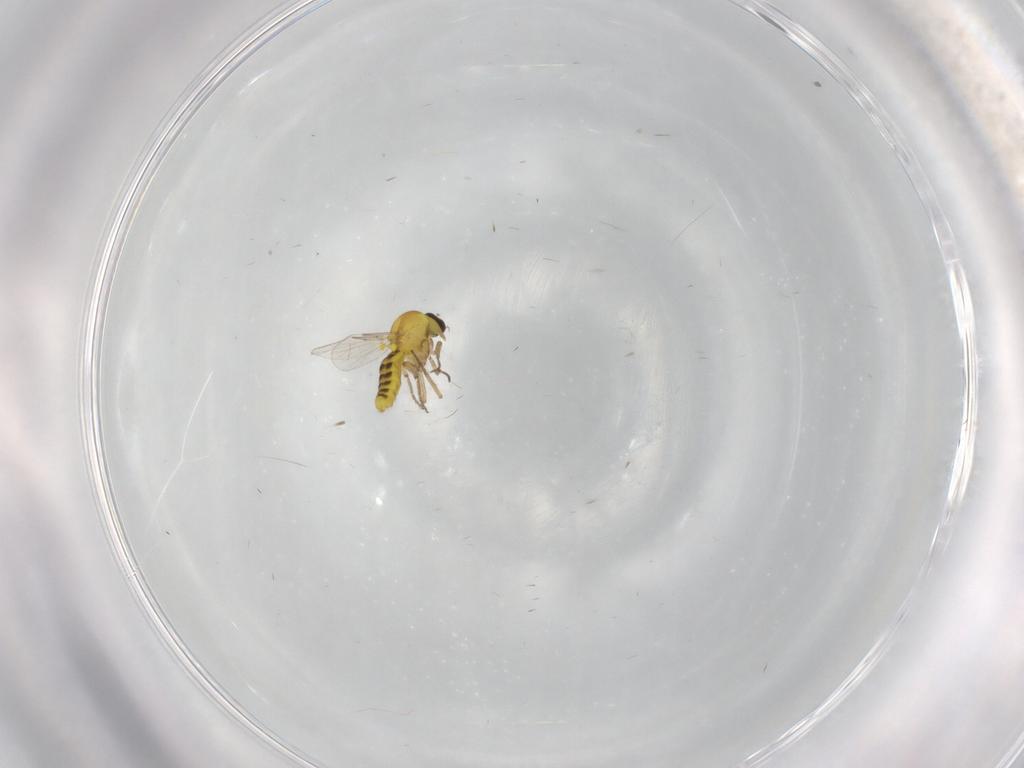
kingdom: Animalia
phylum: Arthropoda
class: Insecta
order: Diptera
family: Ceratopogonidae
